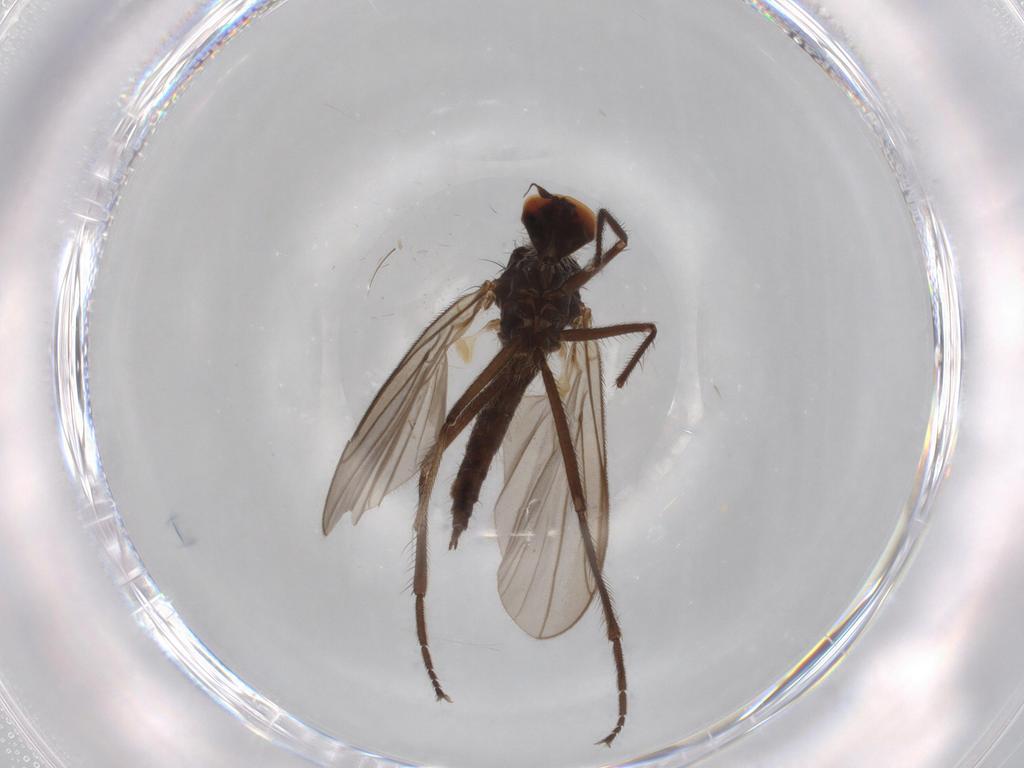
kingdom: Animalia
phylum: Arthropoda
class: Insecta
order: Diptera
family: Hybotidae
